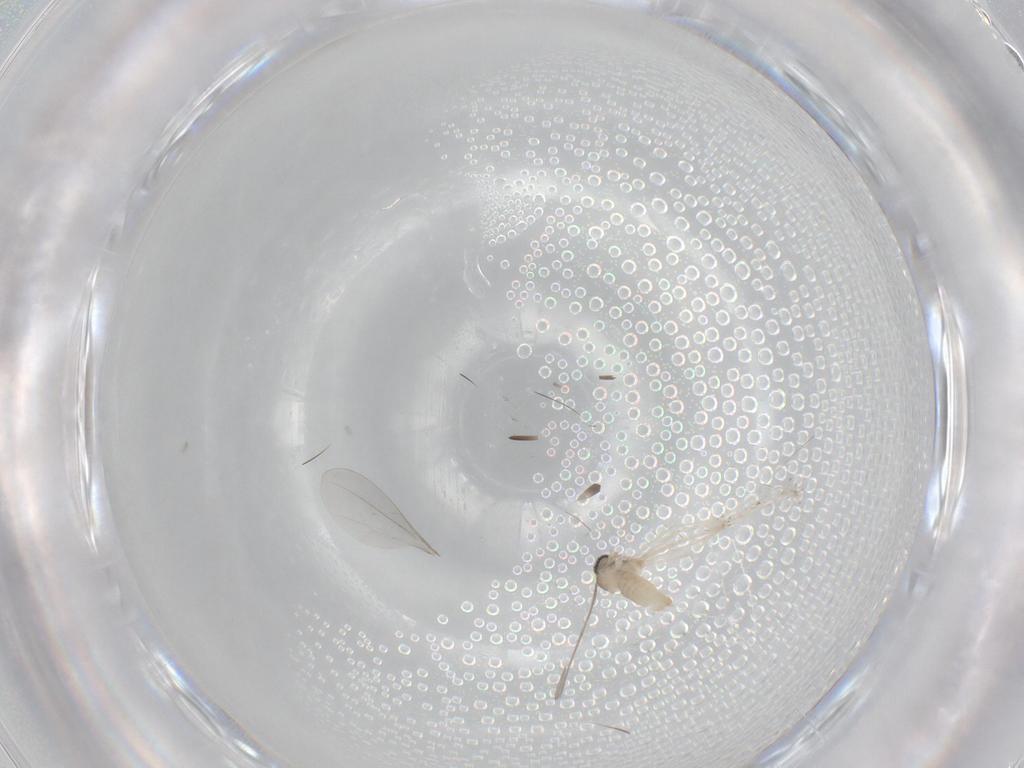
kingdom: Animalia
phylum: Arthropoda
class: Insecta
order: Diptera
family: Cecidomyiidae
